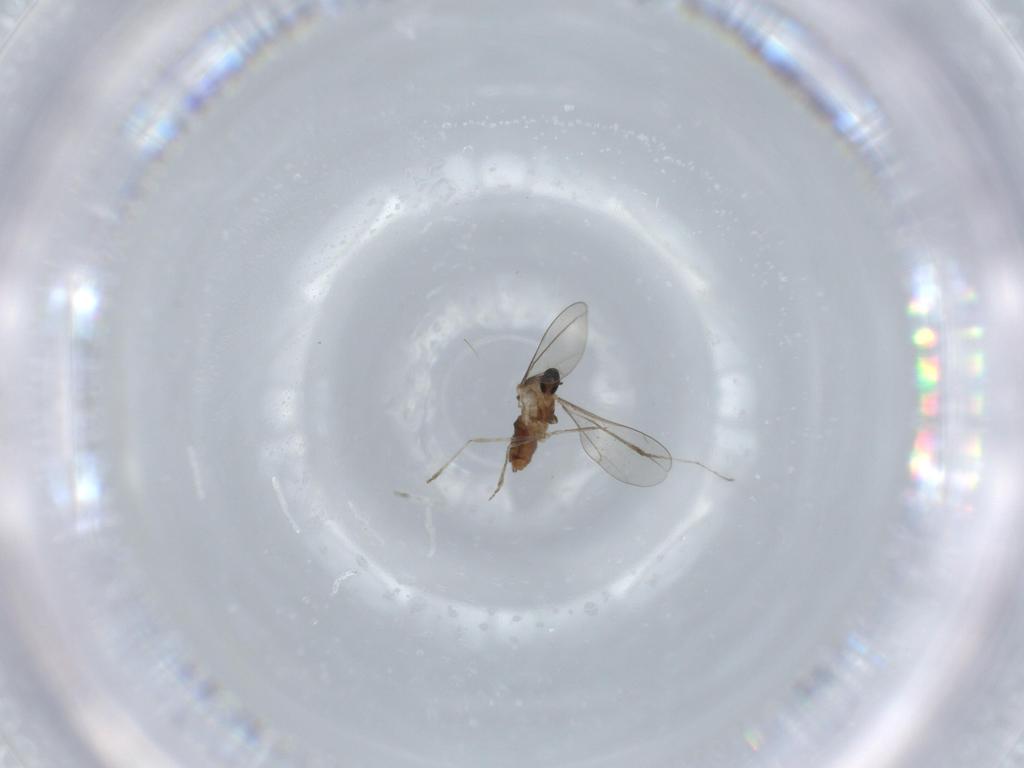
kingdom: Animalia
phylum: Arthropoda
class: Insecta
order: Diptera
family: Cecidomyiidae
